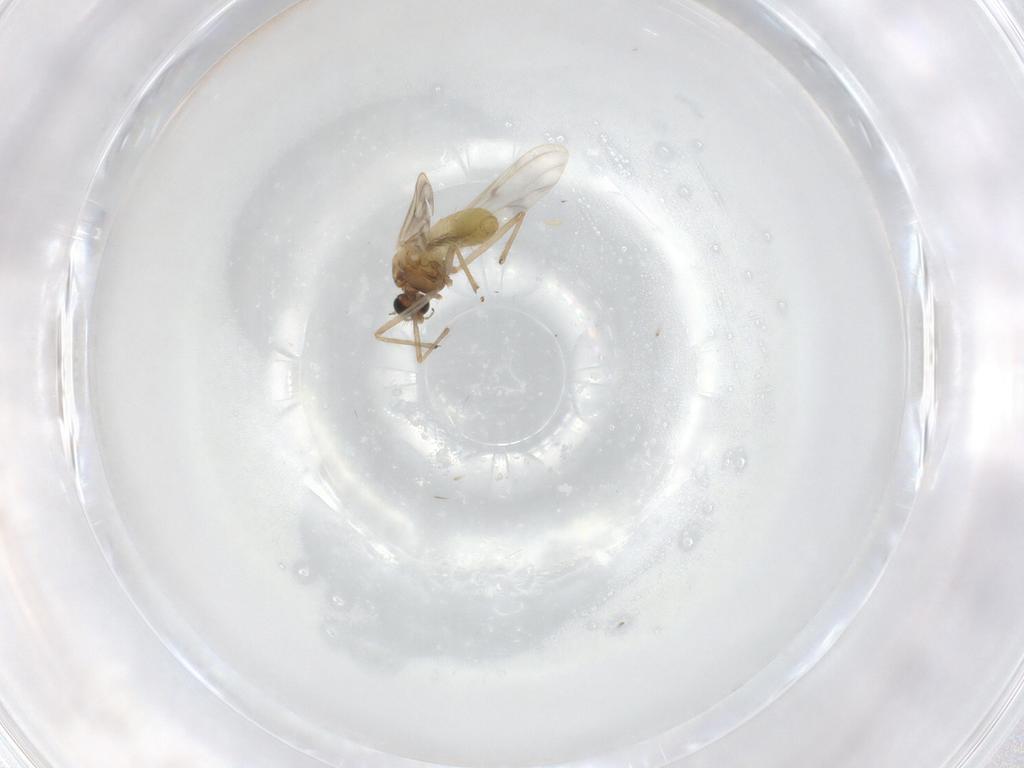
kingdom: Animalia
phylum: Arthropoda
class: Insecta
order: Diptera
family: Chironomidae
